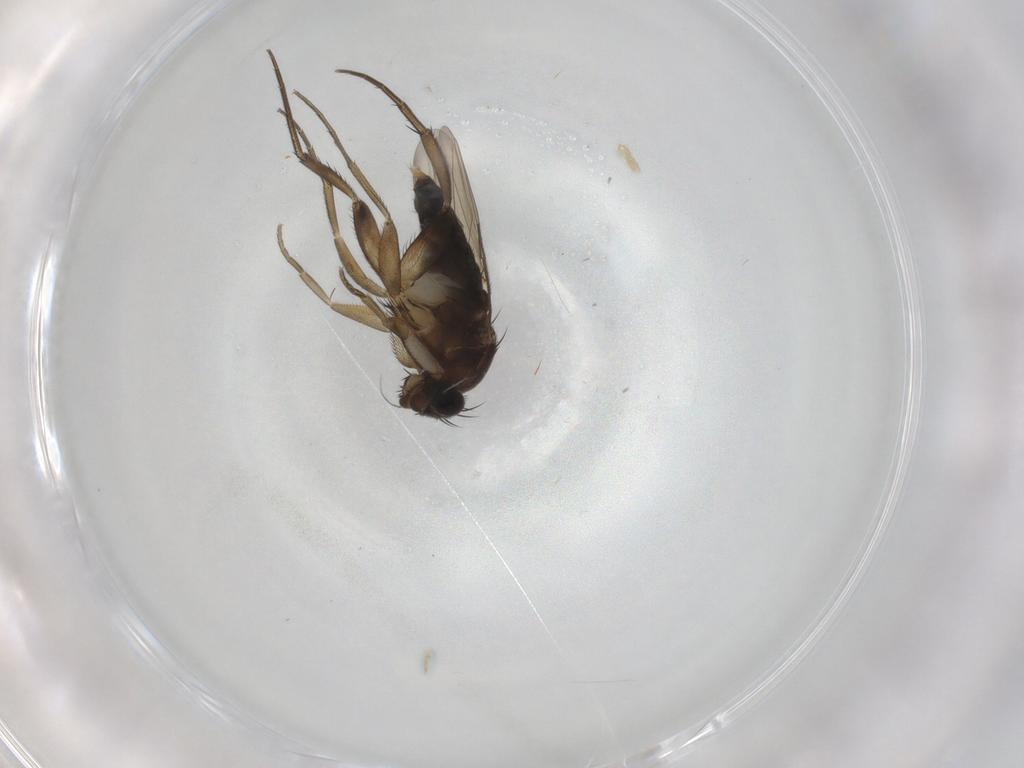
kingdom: Animalia
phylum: Arthropoda
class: Insecta
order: Diptera
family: Phoridae
